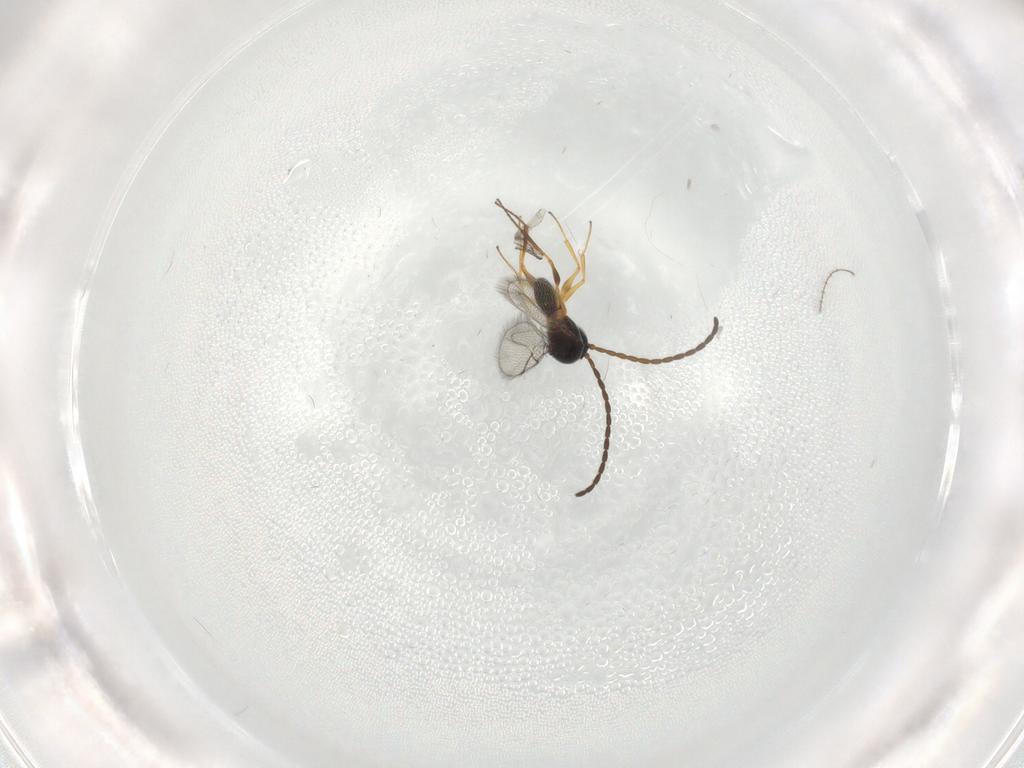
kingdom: Animalia
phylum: Arthropoda
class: Insecta
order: Hymenoptera
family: Figitidae
